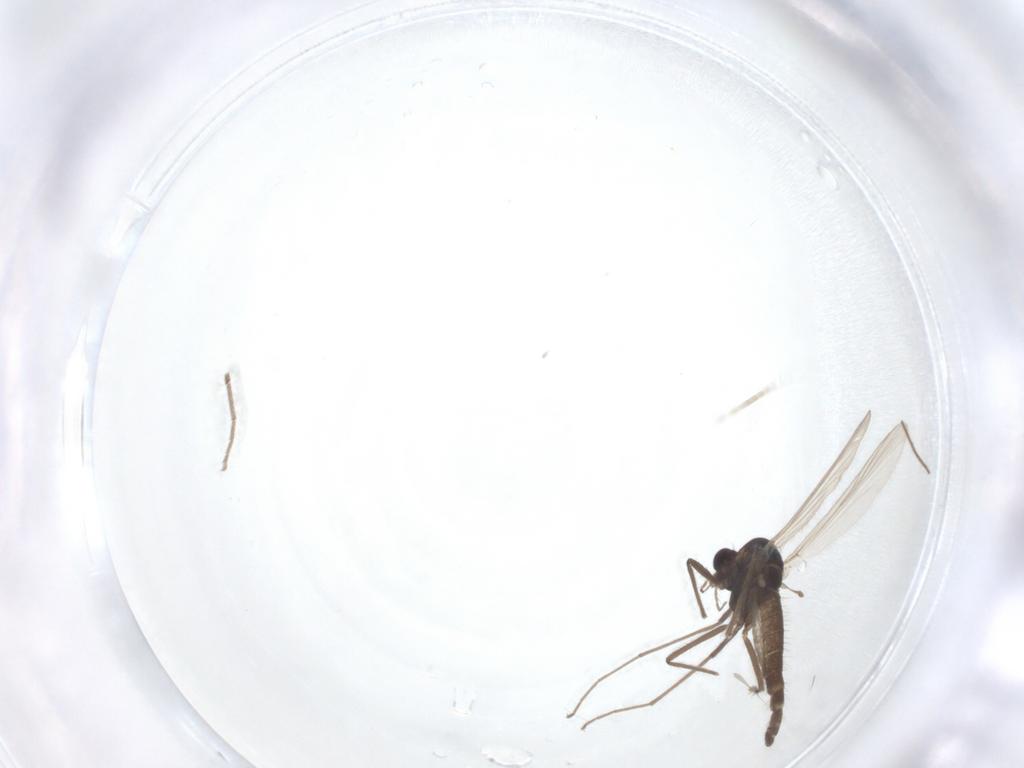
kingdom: Animalia
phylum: Arthropoda
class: Insecta
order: Diptera
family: Chironomidae
